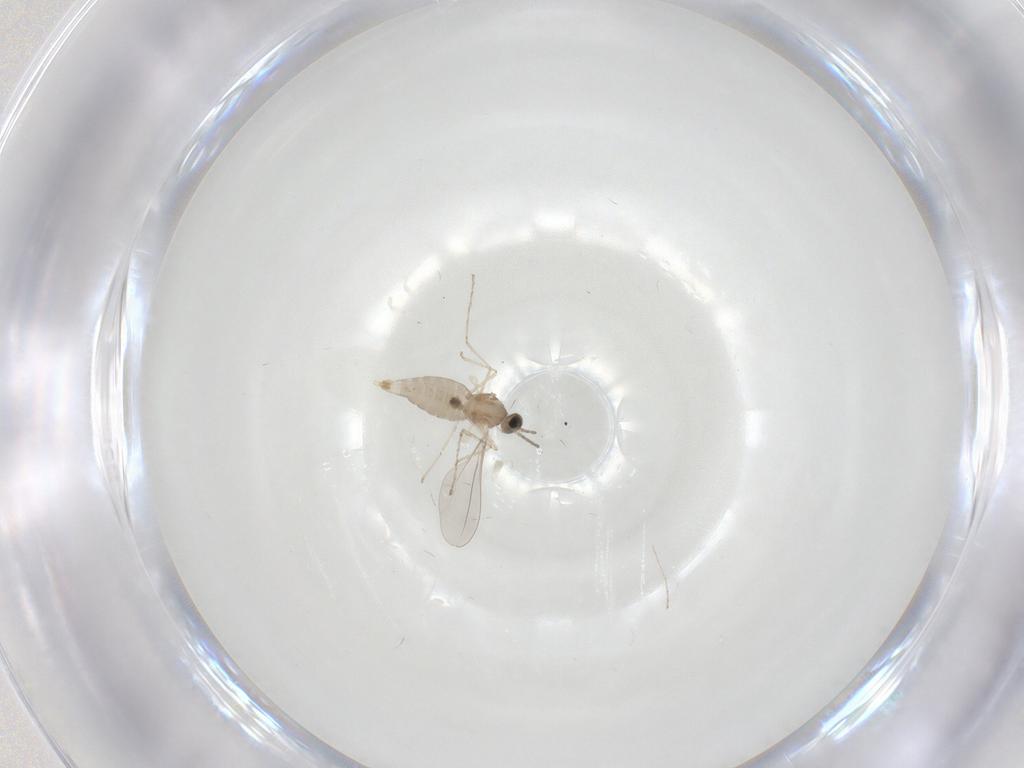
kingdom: Animalia
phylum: Arthropoda
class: Insecta
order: Diptera
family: Cecidomyiidae
